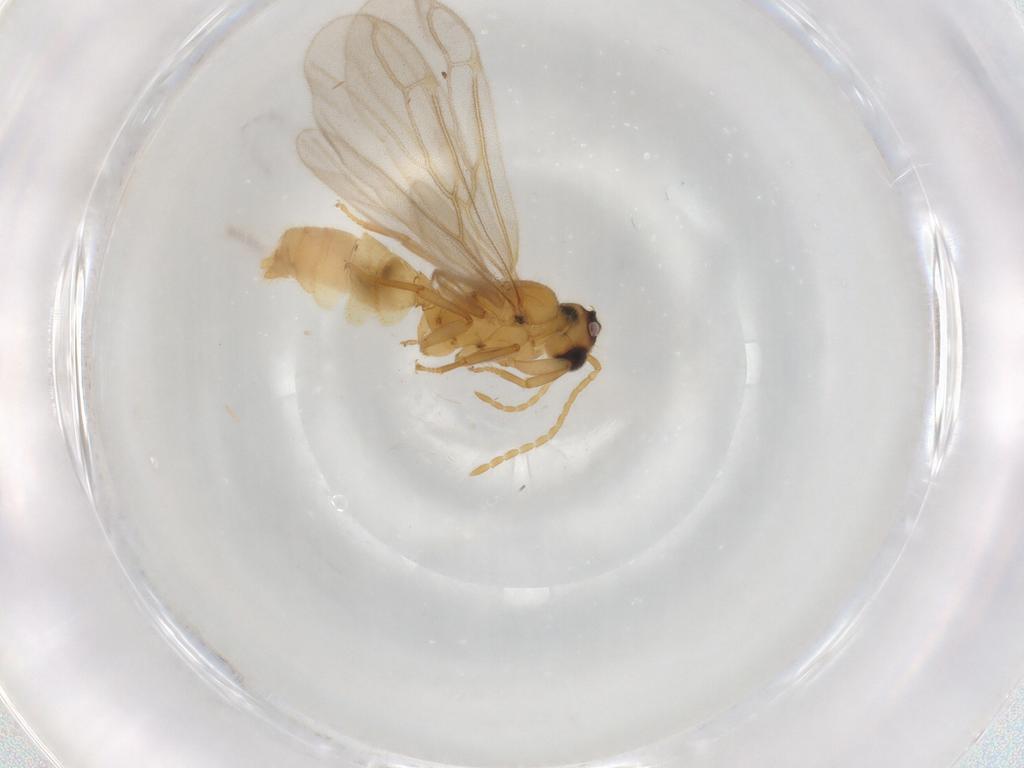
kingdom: Animalia
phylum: Arthropoda
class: Insecta
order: Hymenoptera
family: Formicidae
